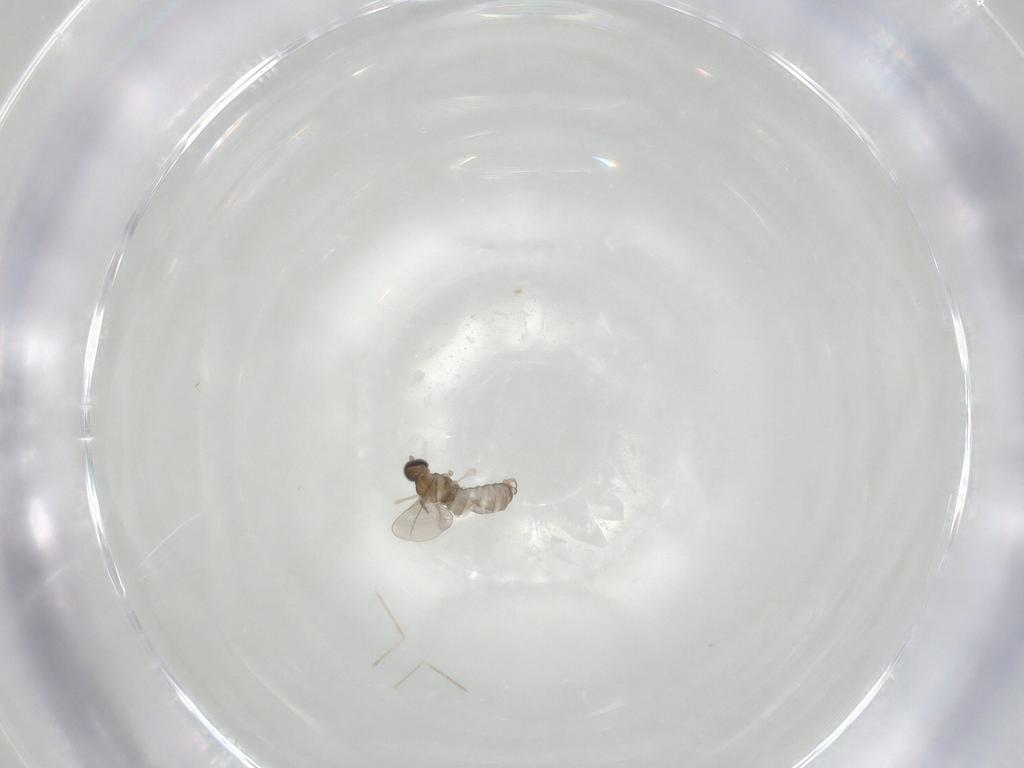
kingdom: Animalia
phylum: Arthropoda
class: Insecta
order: Diptera
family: Cecidomyiidae
